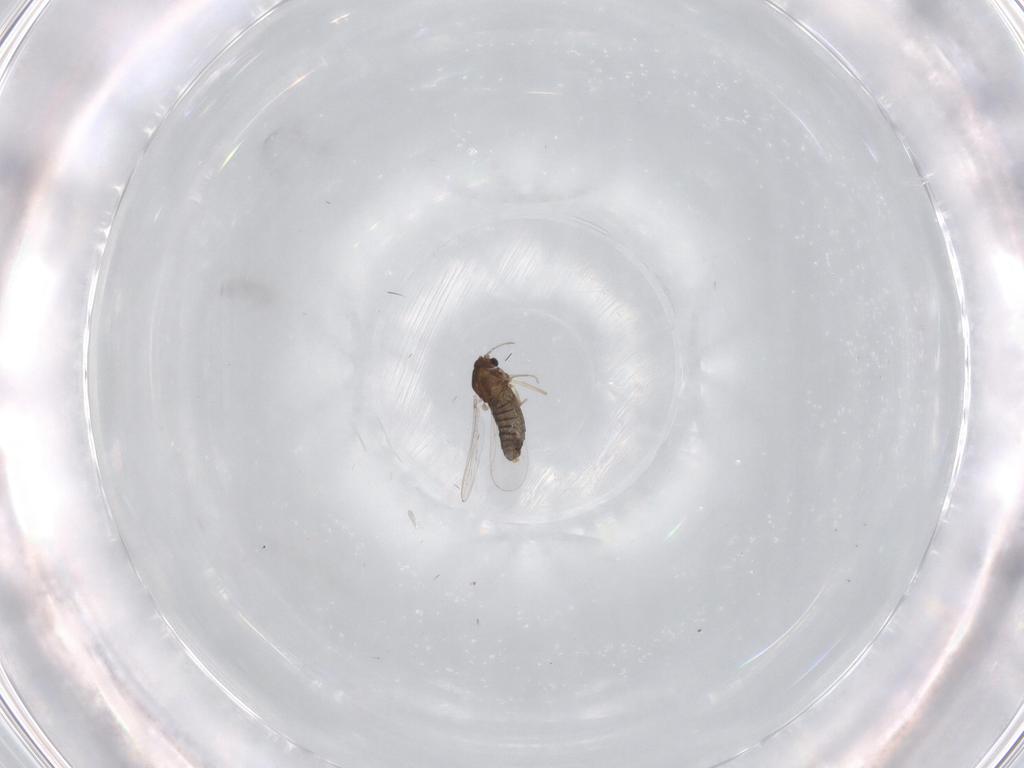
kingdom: Animalia
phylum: Arthropoda
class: Insecta
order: Diptera
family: Chironomidae
